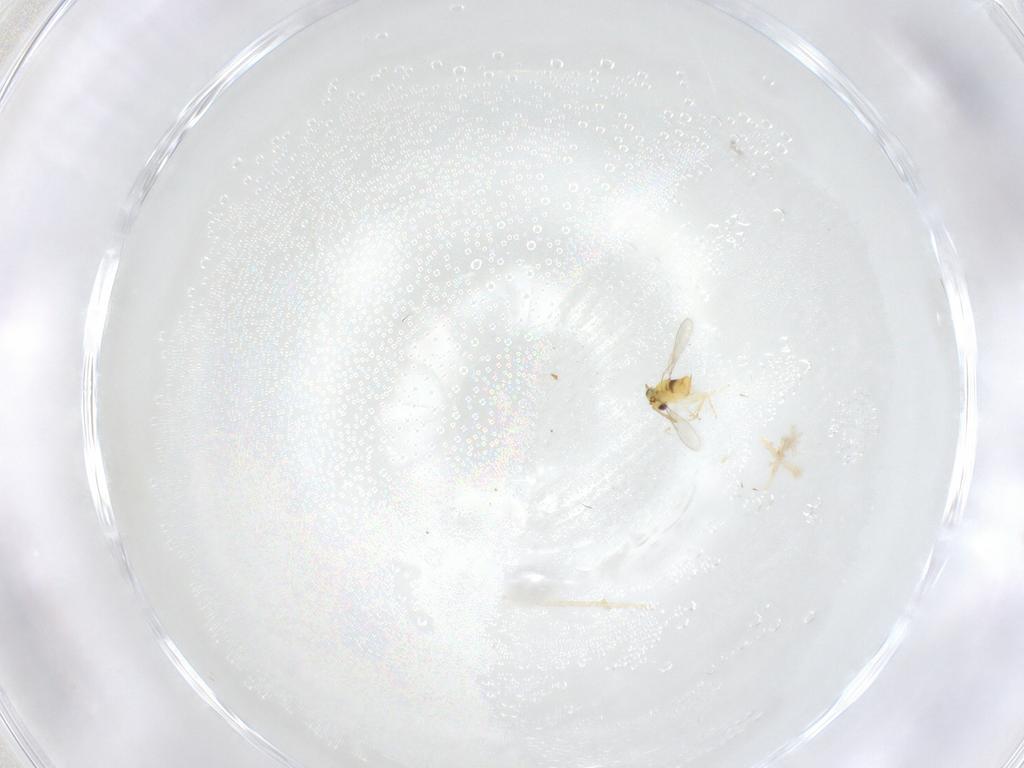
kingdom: Animalia
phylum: Arthropoda
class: Insecta
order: Hymenoptera
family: Aphelinidae
